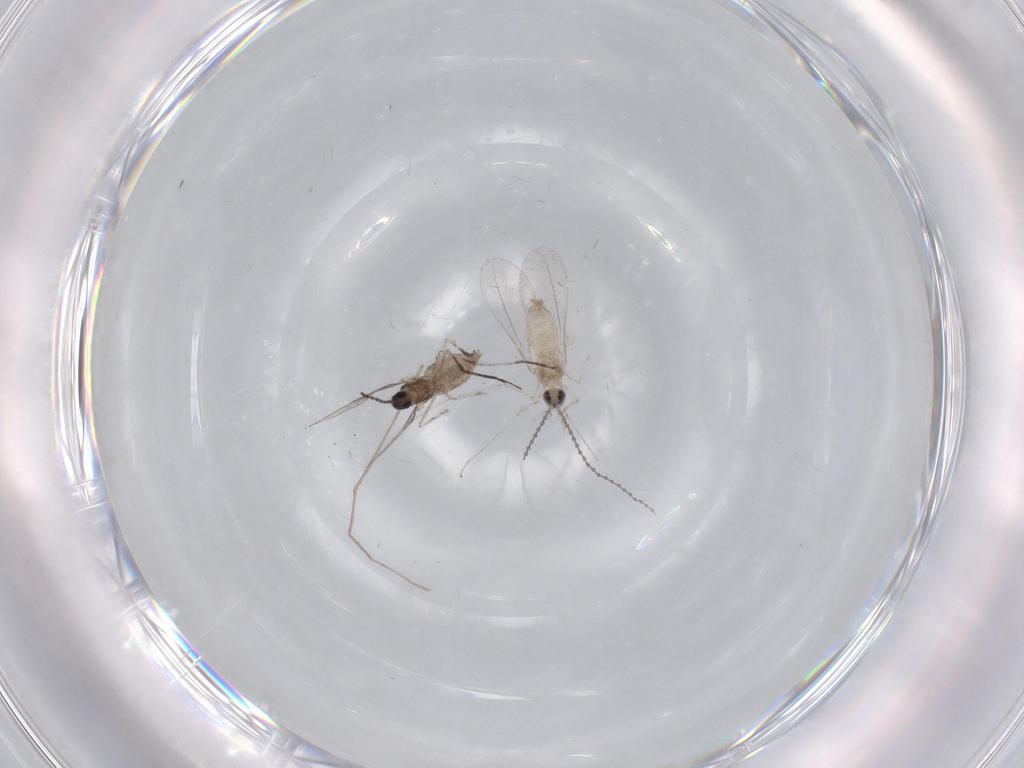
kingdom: Animalia
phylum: Arthropoda
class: Insecta
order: Diptera
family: Cecidomyiidae
